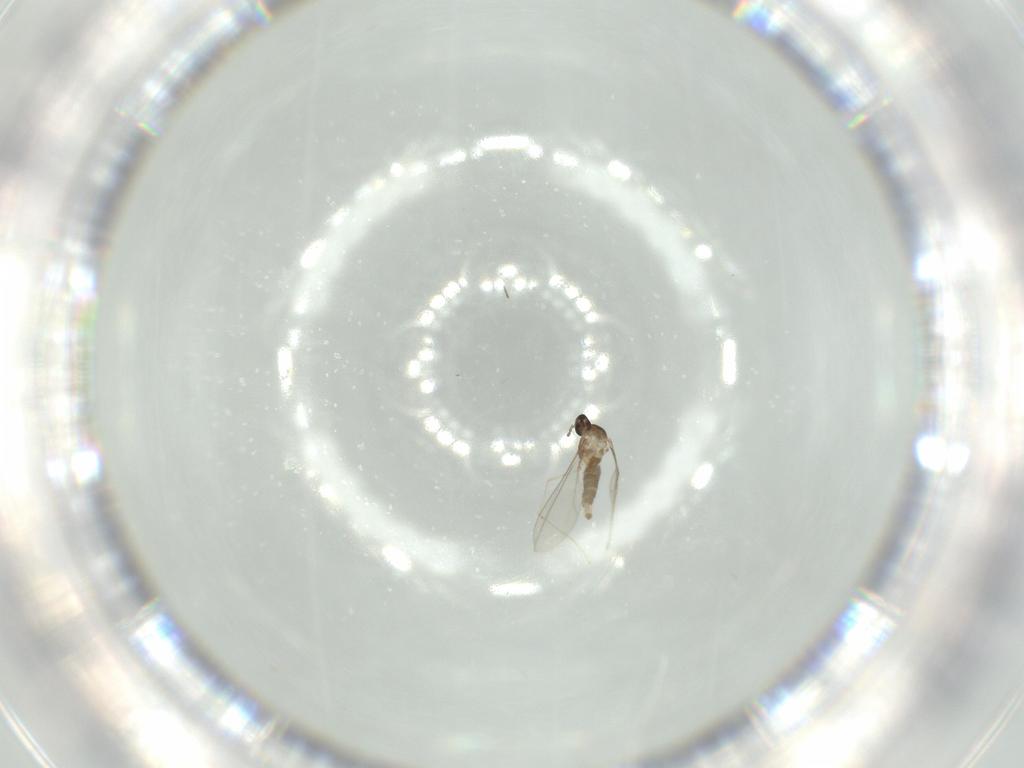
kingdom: Animalia
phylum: Arthropoda
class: Insecta
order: Diptera
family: Cecidomyiidae
